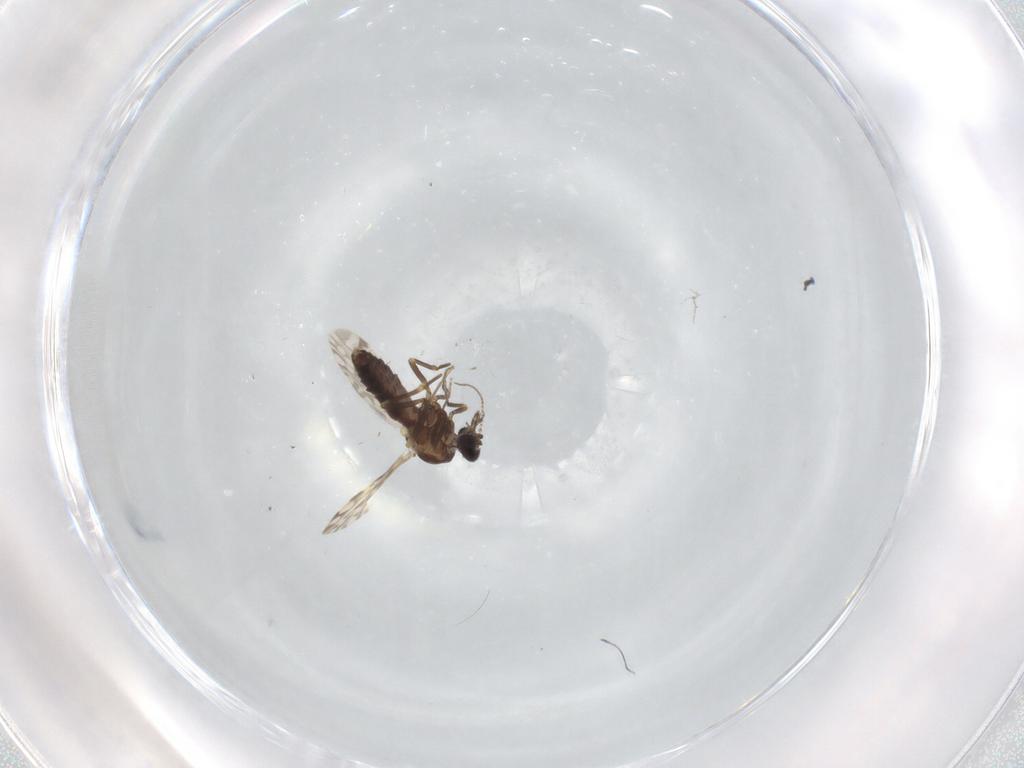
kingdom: Animalia
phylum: Arthropoda
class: Insecta
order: Diptera
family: Ceratopogonidae
